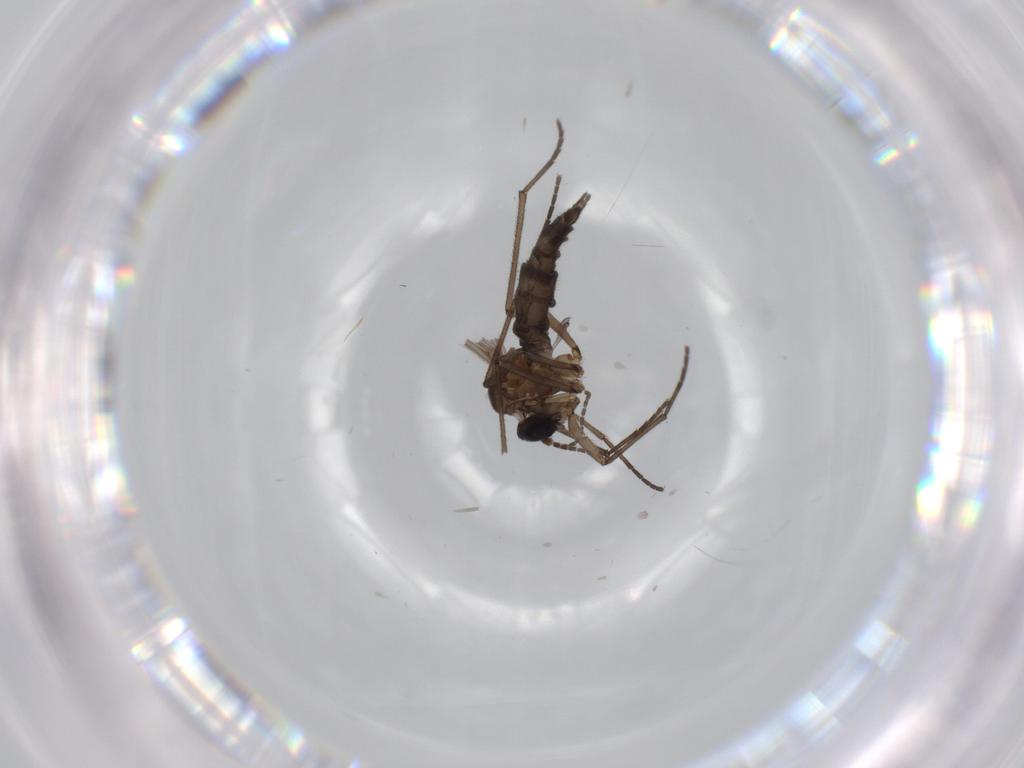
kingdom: Animalia
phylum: Arthropoda
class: Insecta
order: Diptera
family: Sciaridae
